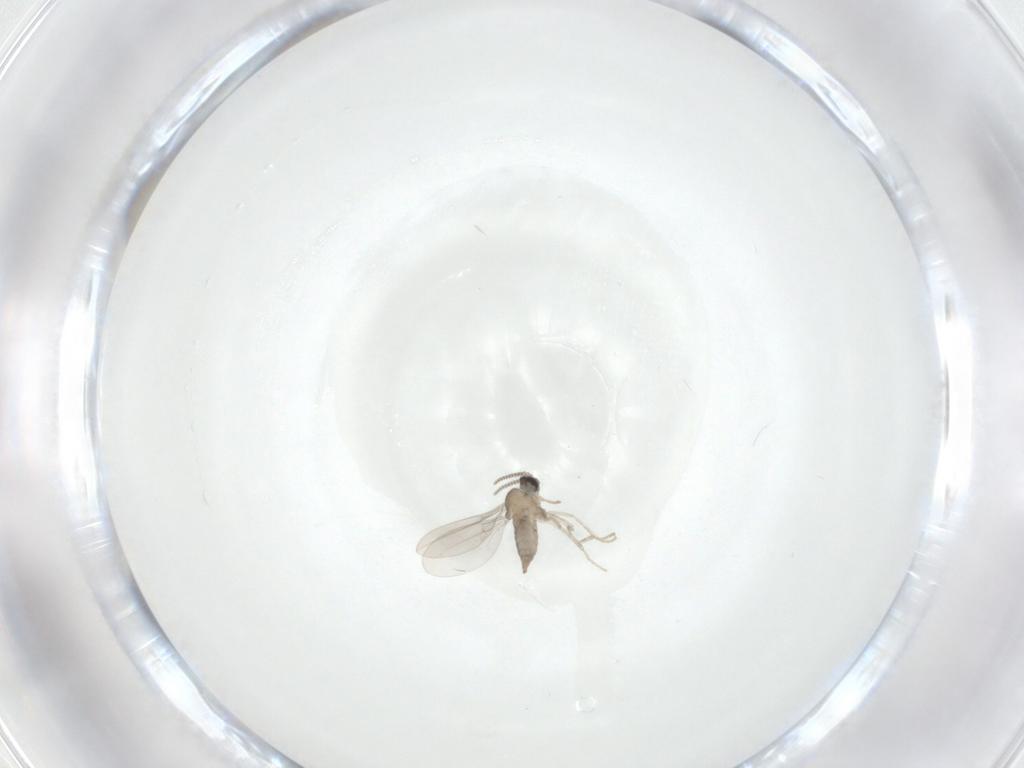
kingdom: Animalia
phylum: Arthropoda
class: Insecta
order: Diptera
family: Cecidomyiidae
